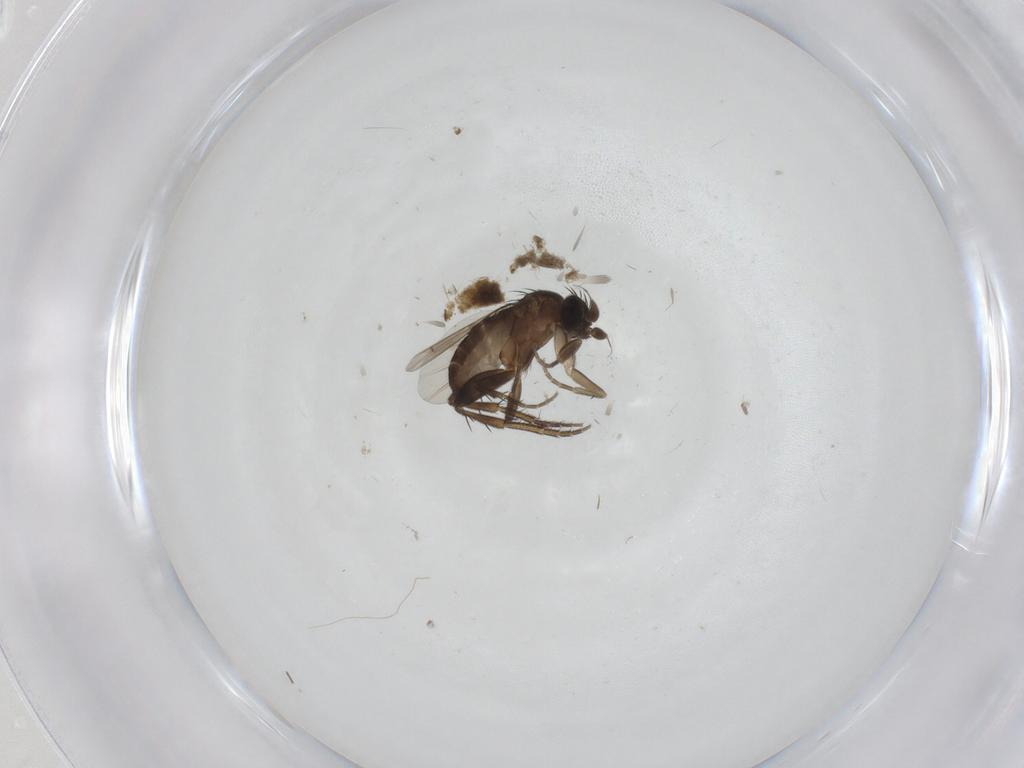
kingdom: Animalia
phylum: Arthropoda
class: Insecta
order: Diptera
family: Phoridae
